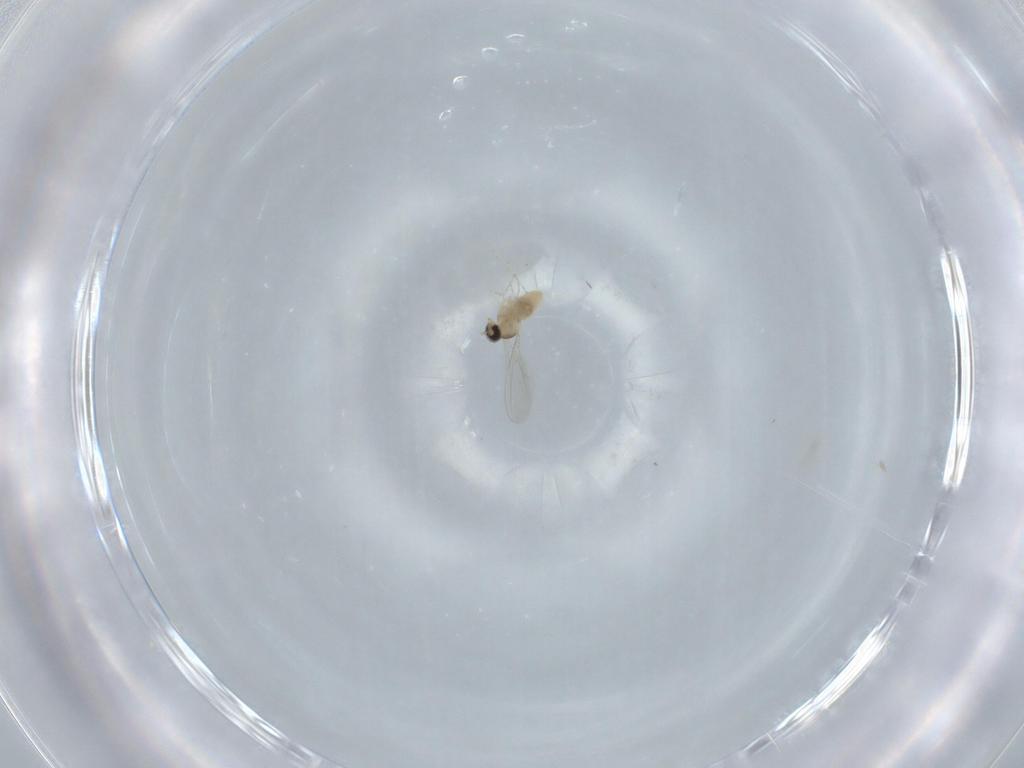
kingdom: Animalia
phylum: Arthropoda
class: Insecta
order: Diptera
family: Cecidomyiidae
